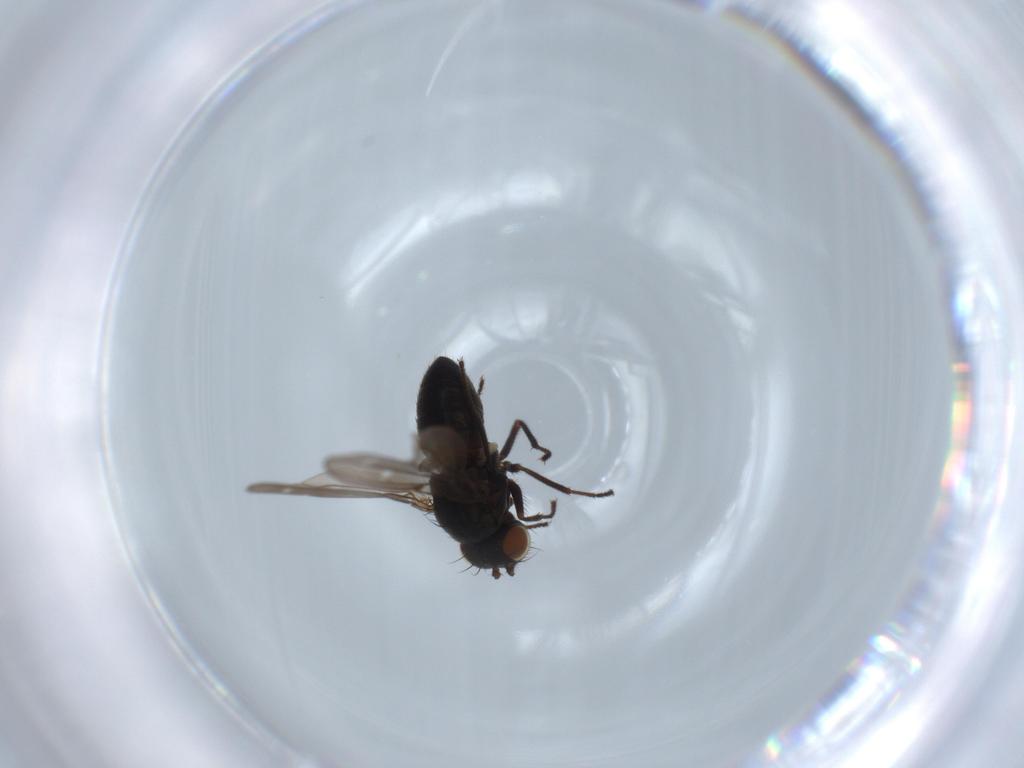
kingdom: Animalia
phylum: Arthropoda
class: Insecta
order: Diptera
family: Ephydridae
